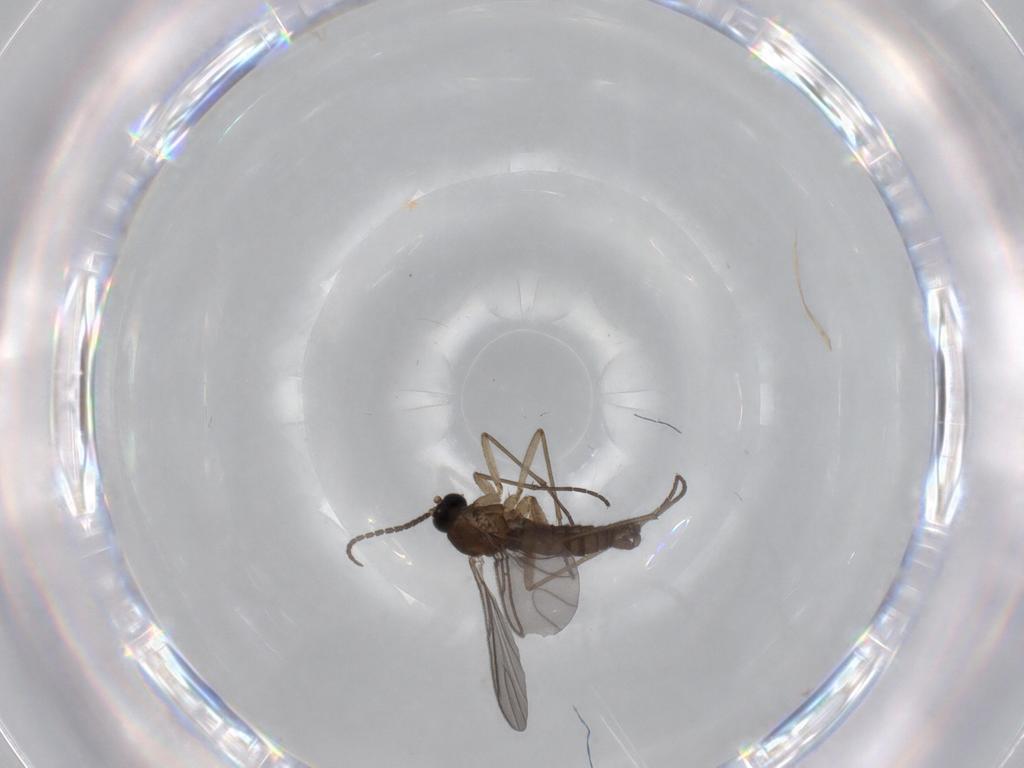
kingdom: Animalia
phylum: Arthropoda
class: Insecta
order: Diptera
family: Sciaridae
